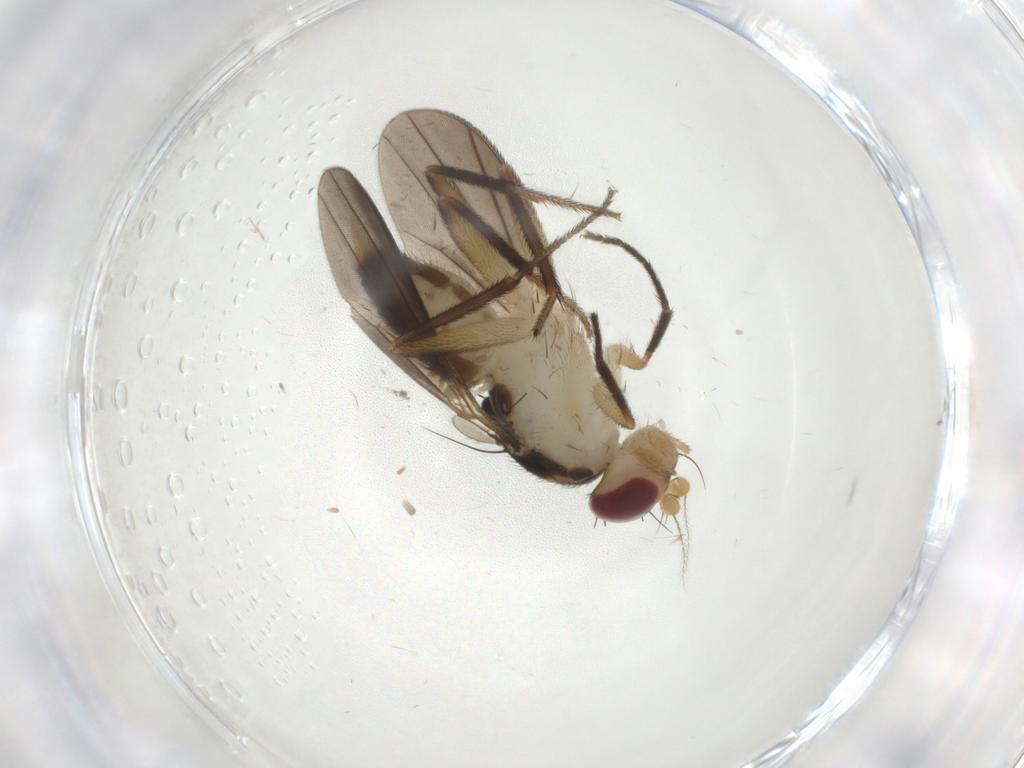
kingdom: Animalia
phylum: Arthropoda
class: Insecta
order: Diptera
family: Clusiidae
